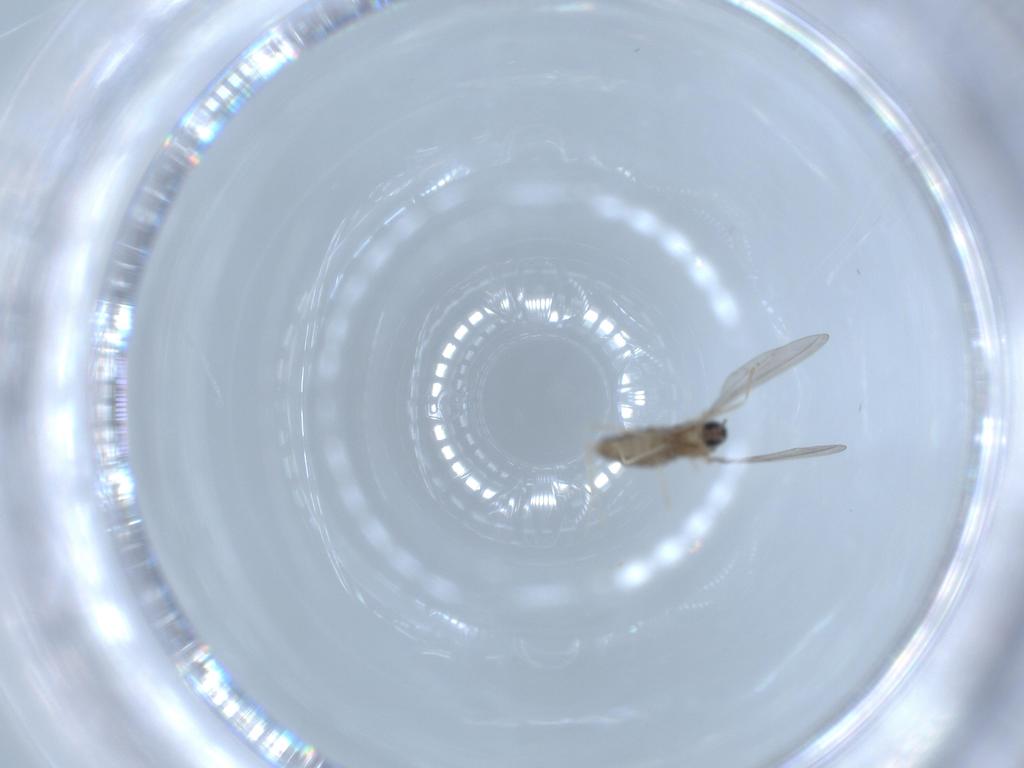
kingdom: Animalia
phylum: Arthropoda
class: Insecta
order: Diptera
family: Cecidomyiidae
